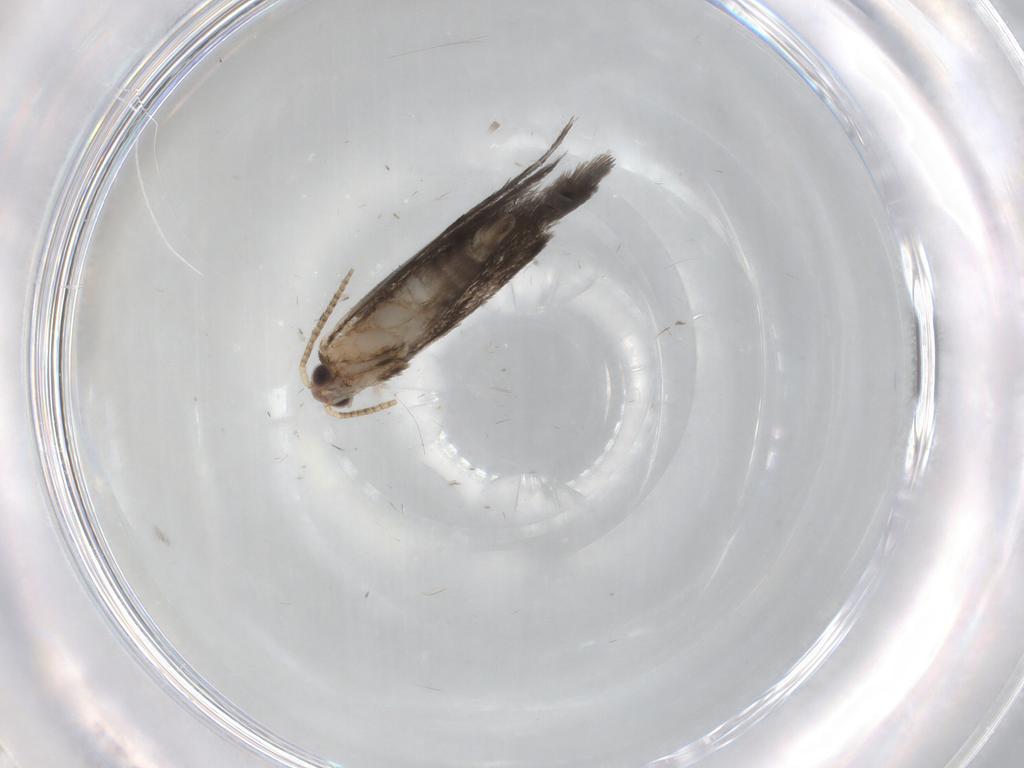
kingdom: Animalia
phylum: Arthropoda
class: Insecta
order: Lepidoptera
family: Tineidae
